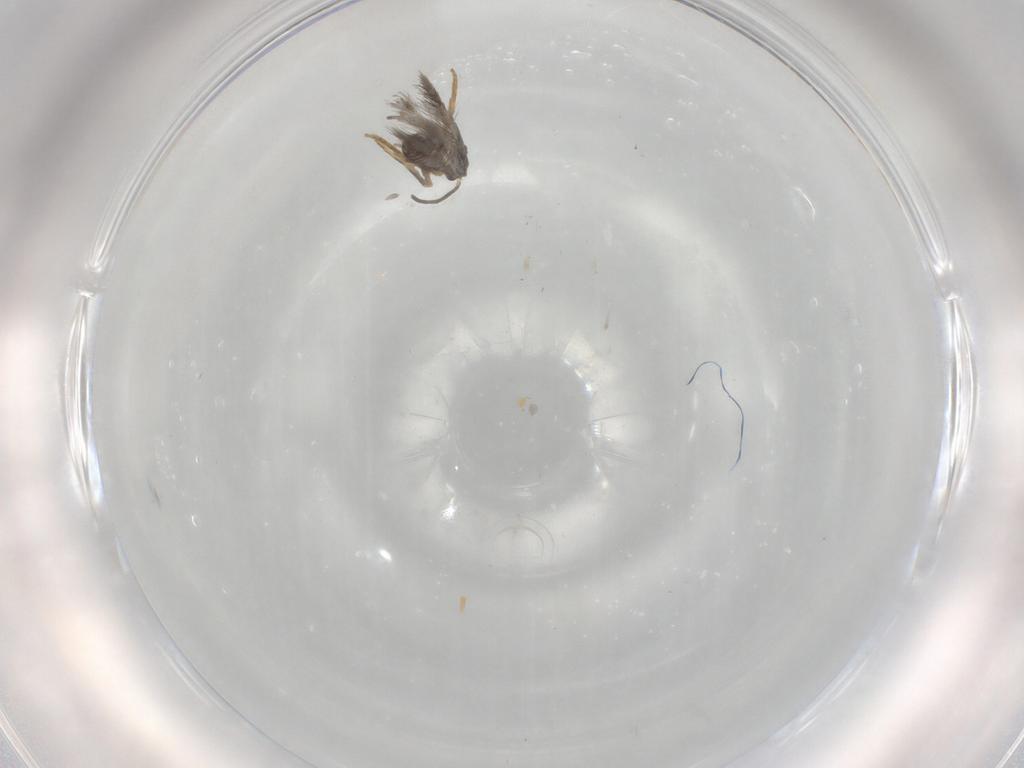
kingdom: Animalia
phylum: Arthropoda
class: Insecta
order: Lepidoptera
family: Nepticulidae
